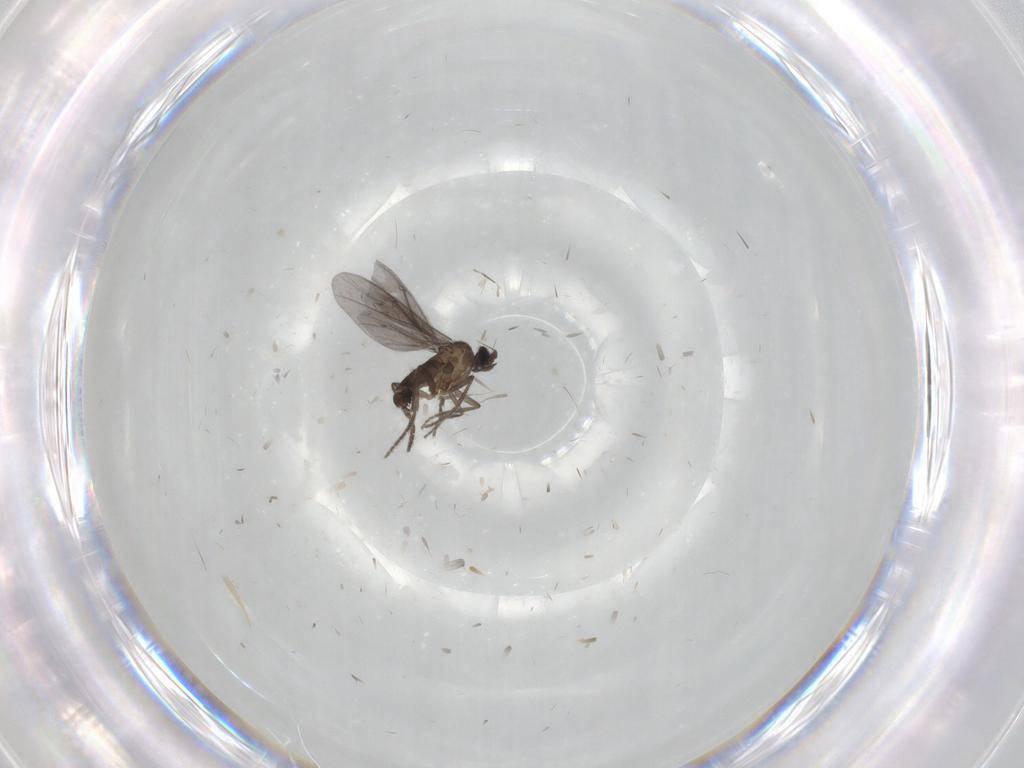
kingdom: Animalia
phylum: Arthropoda
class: Insecta
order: Diptera
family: Phoridae
